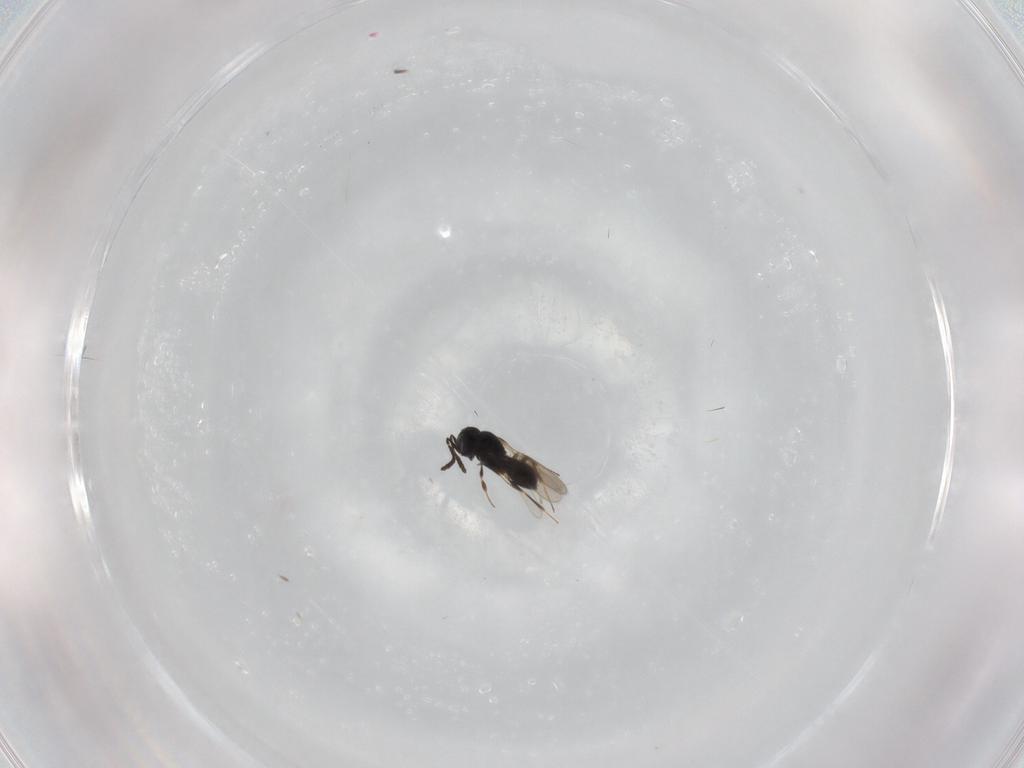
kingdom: Animalia
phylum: Arthropoda
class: Insecta
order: Hymenoptera
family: Scelionidae
